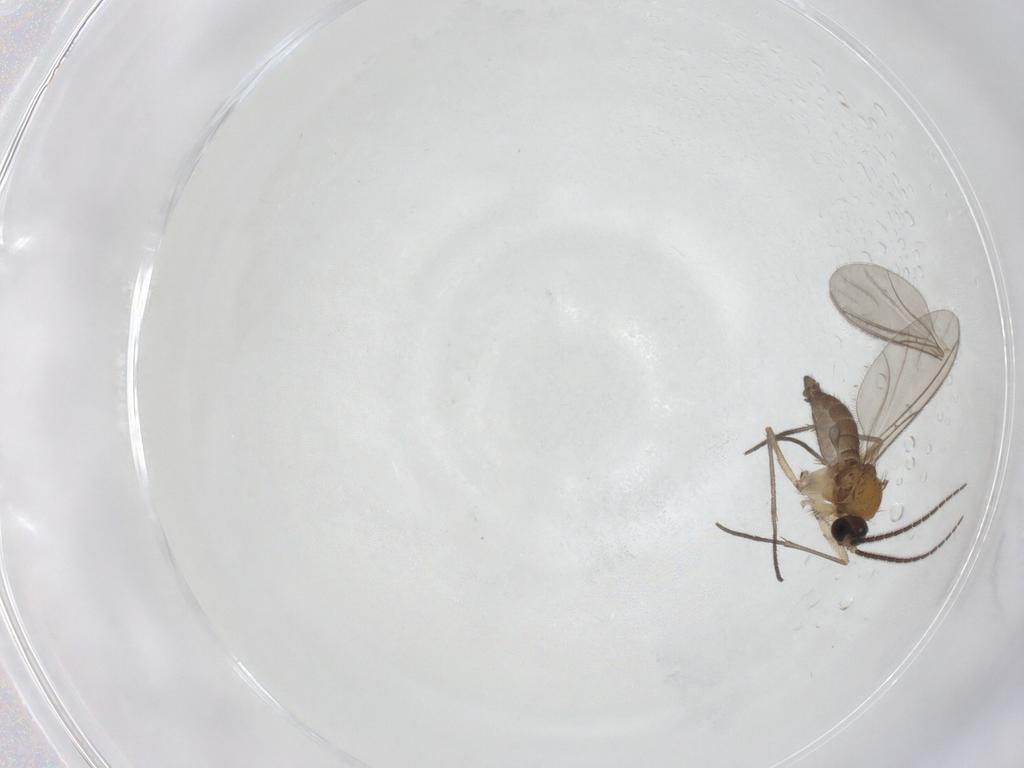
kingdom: Animalia
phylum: Arthropoda
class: Insecta
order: Diptera
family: Sciaridae
